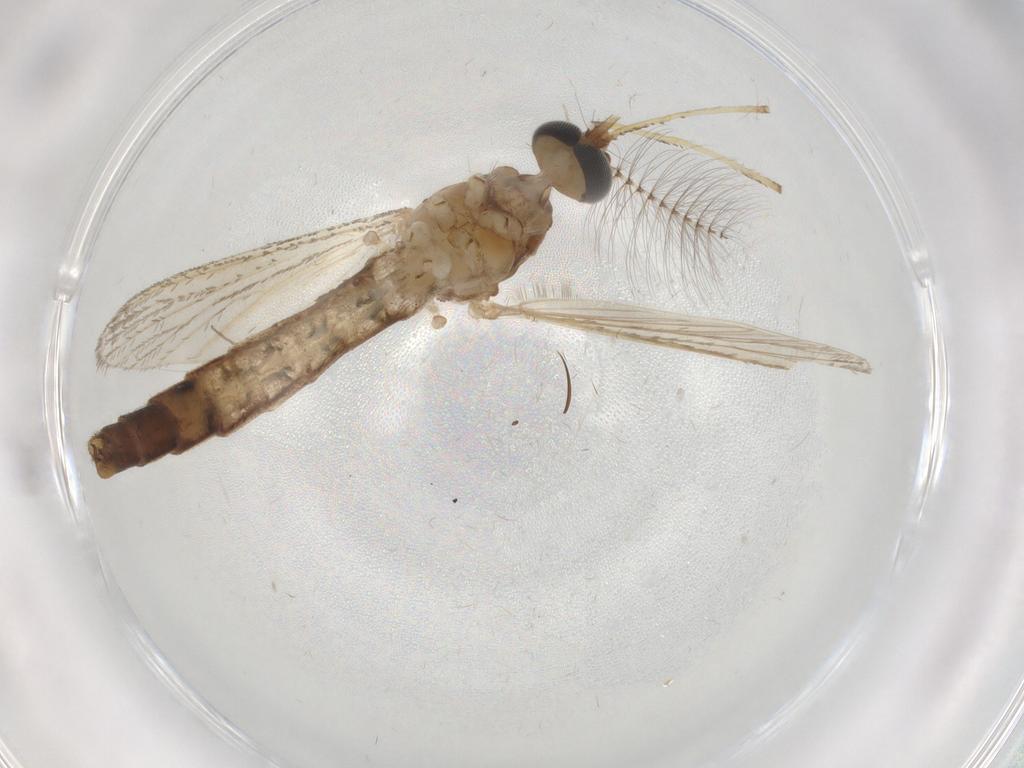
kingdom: Animalia
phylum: Arthropoda
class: Insecta
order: Diptera
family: Cecidomyiidae
